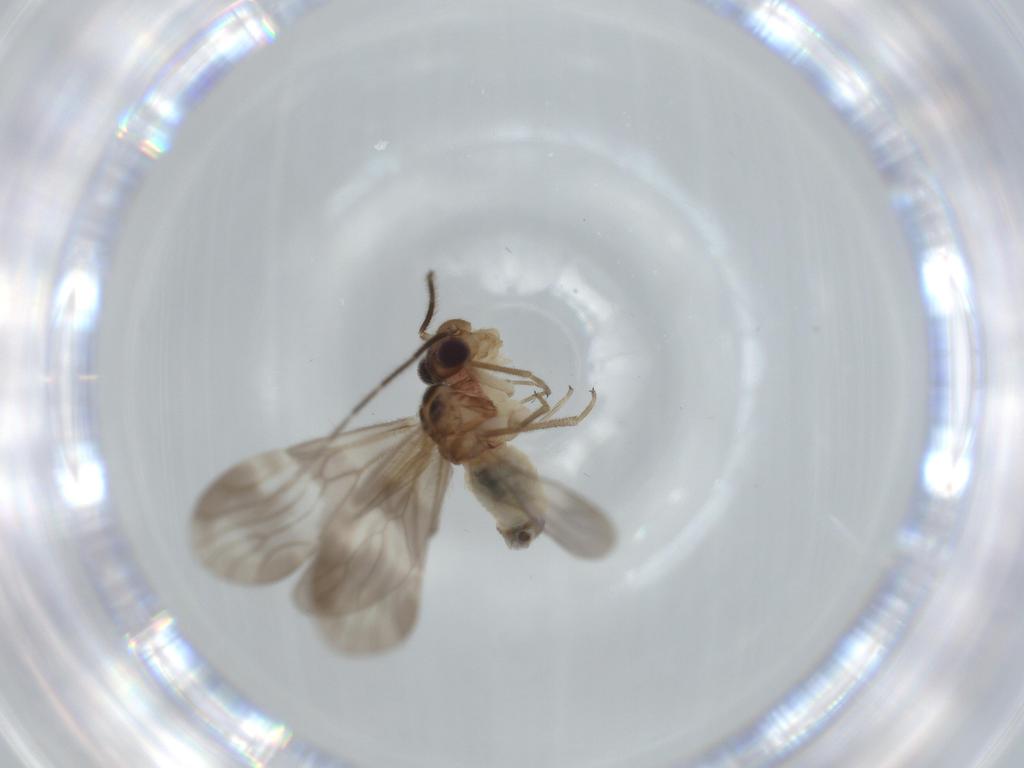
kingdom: Animalia
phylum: Arthropoda
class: Insecta
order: Psocodea
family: Amphipsocidae
